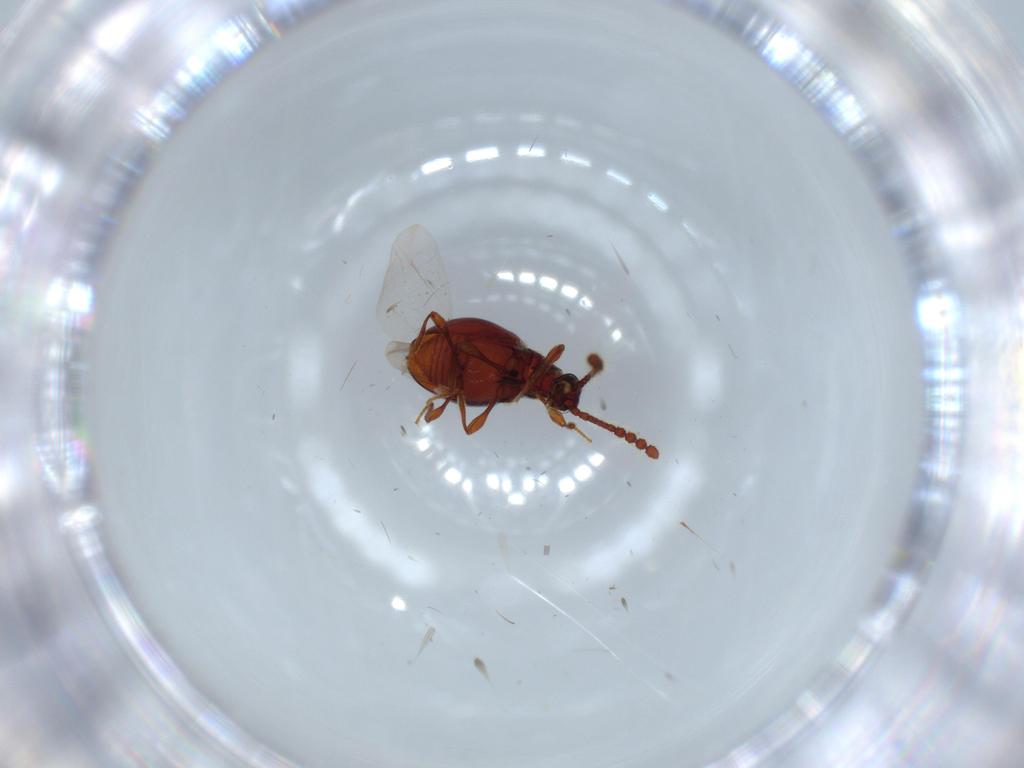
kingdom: Animalia
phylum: Arthropoda
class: Insecta
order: Coleoptera
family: Staphylinidae
